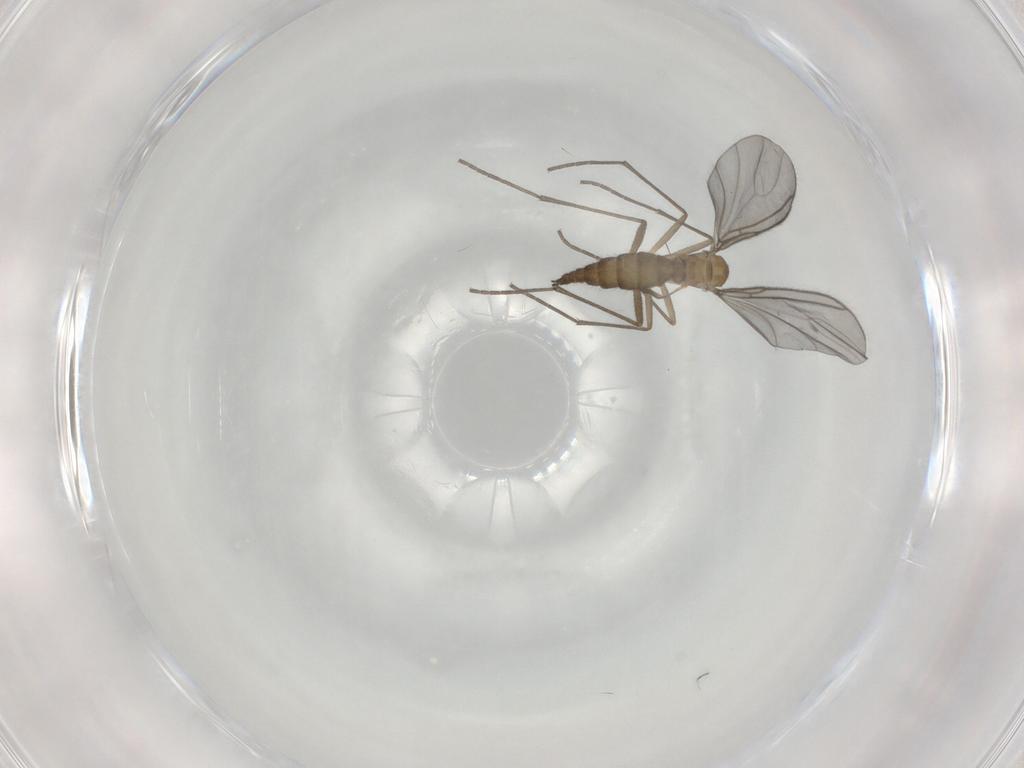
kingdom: Animalia
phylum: Arthropoda
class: Insecta
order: Diptera
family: Sciaridae
